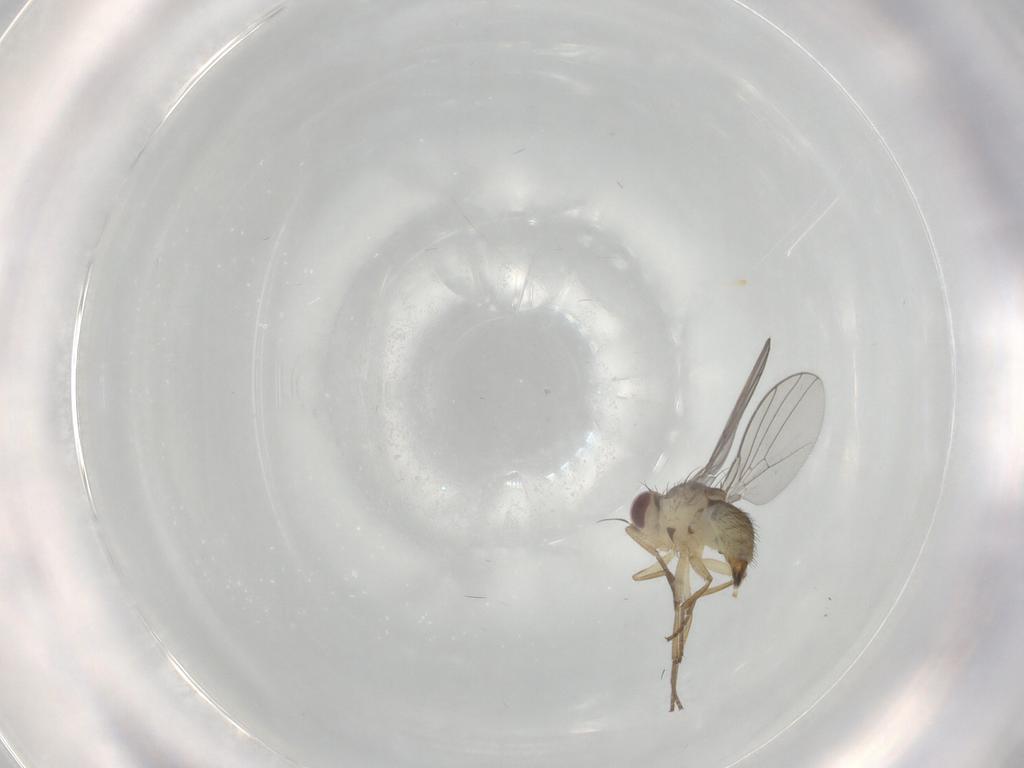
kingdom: Animalia
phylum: Arthropoda
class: Insecta
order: Diptera
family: Agromyzidae
